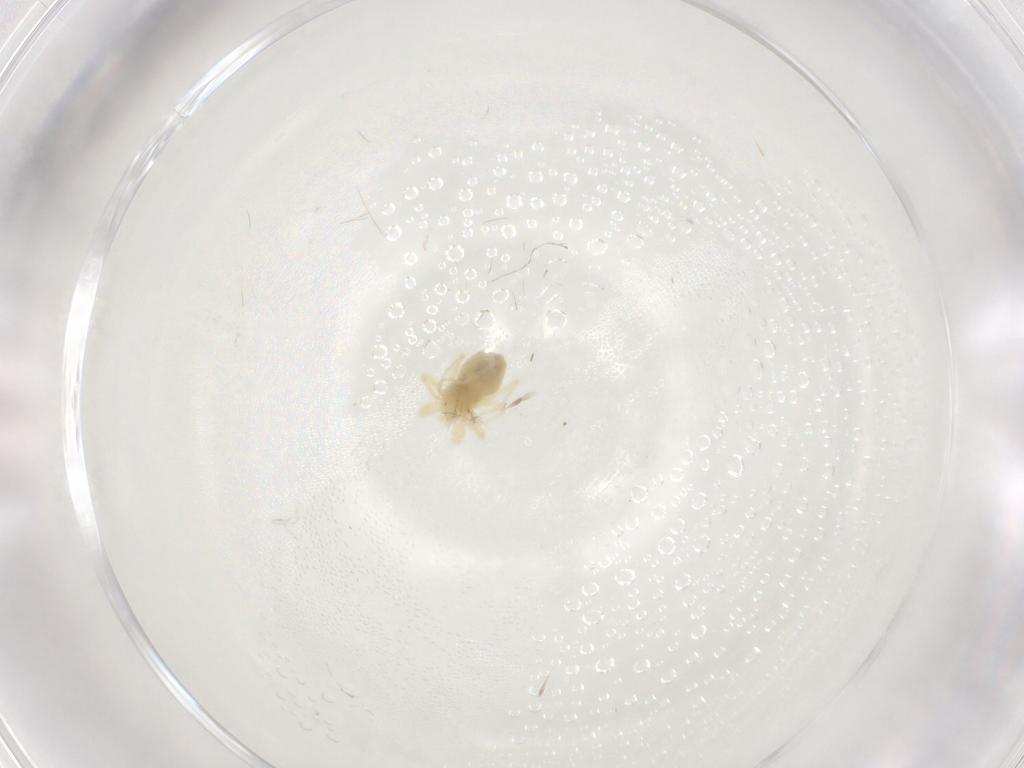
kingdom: Animalia
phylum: Arthropoda
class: Arachnida
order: Trombidiformes
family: Anystidae
